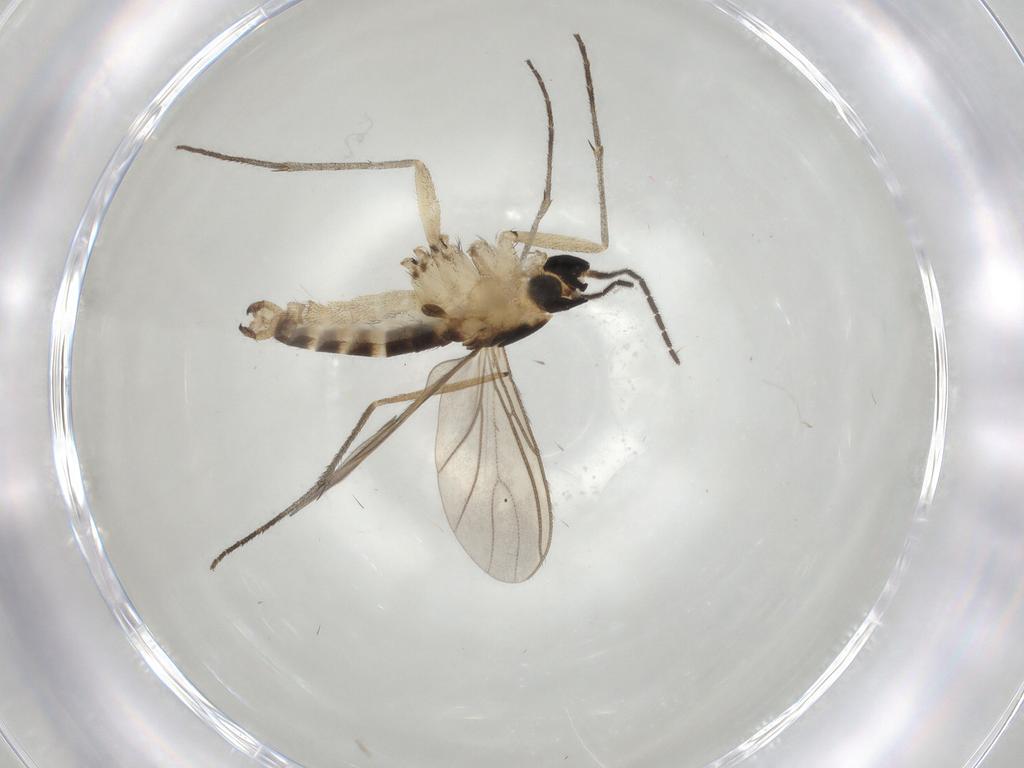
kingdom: Animalia
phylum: Arthropoda
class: Insecta
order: Diptera
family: Sciaridae
